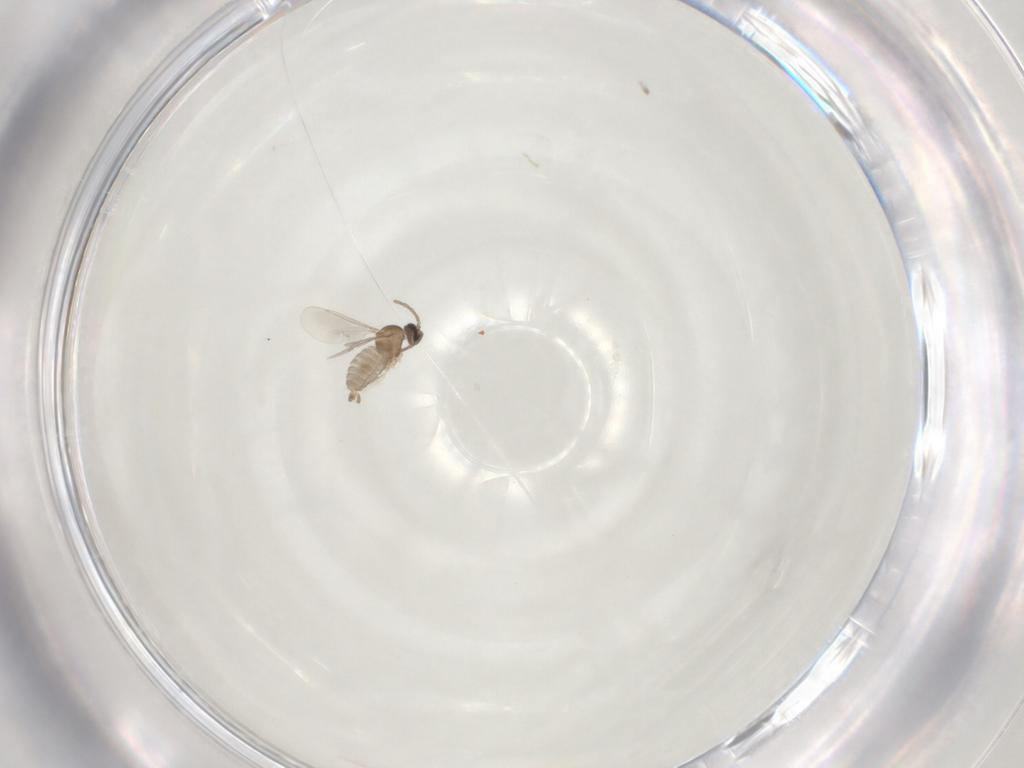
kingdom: Animalia
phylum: Arthropoda
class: Insecta
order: Diptera
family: Cecidomyiidae
